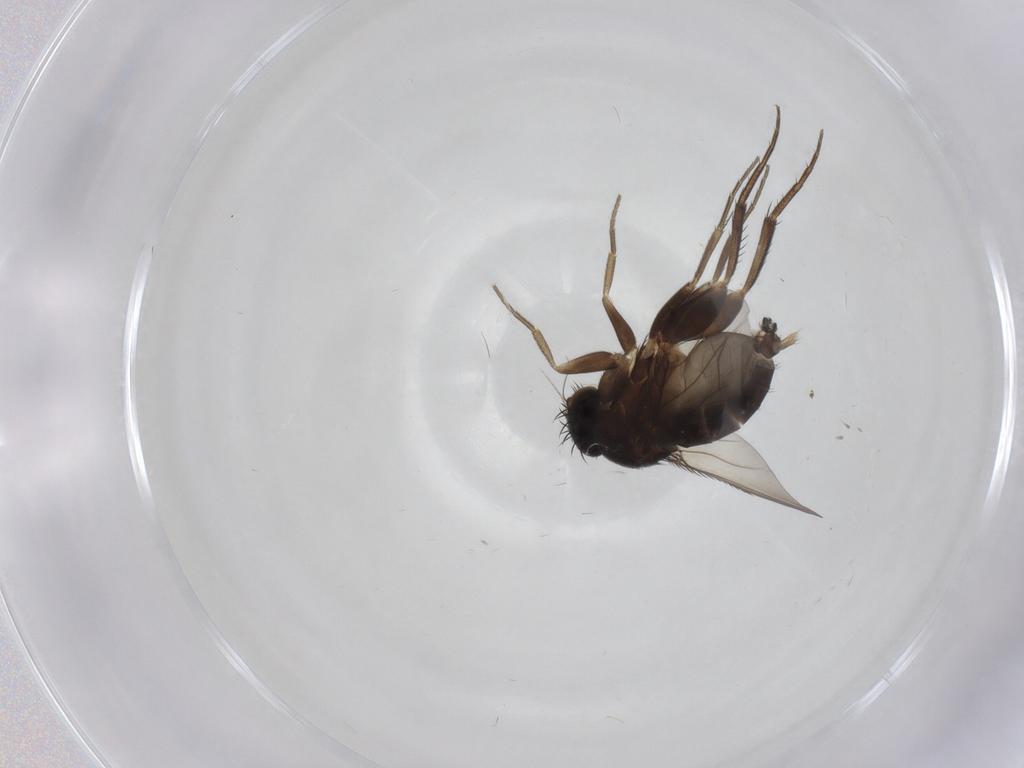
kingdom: Animalia
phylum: Arthropoda
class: Insecta
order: Diptera
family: Phoridae
